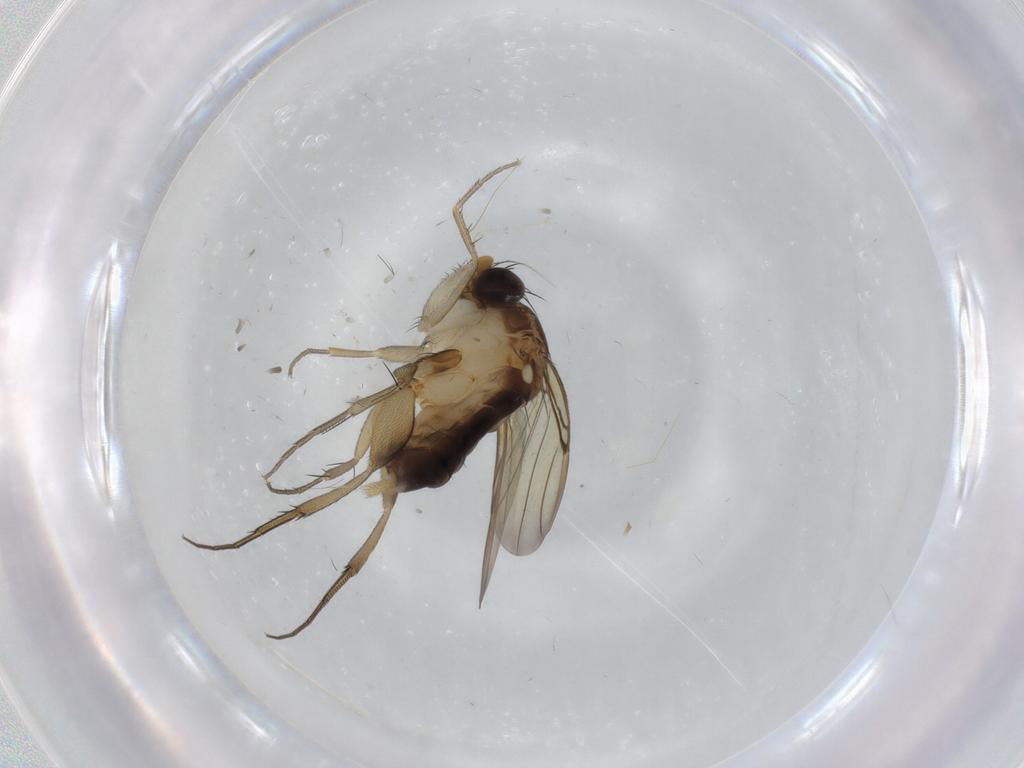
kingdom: Animalia
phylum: Arthropoda
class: Insecta
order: Diptera
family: Phoridae
